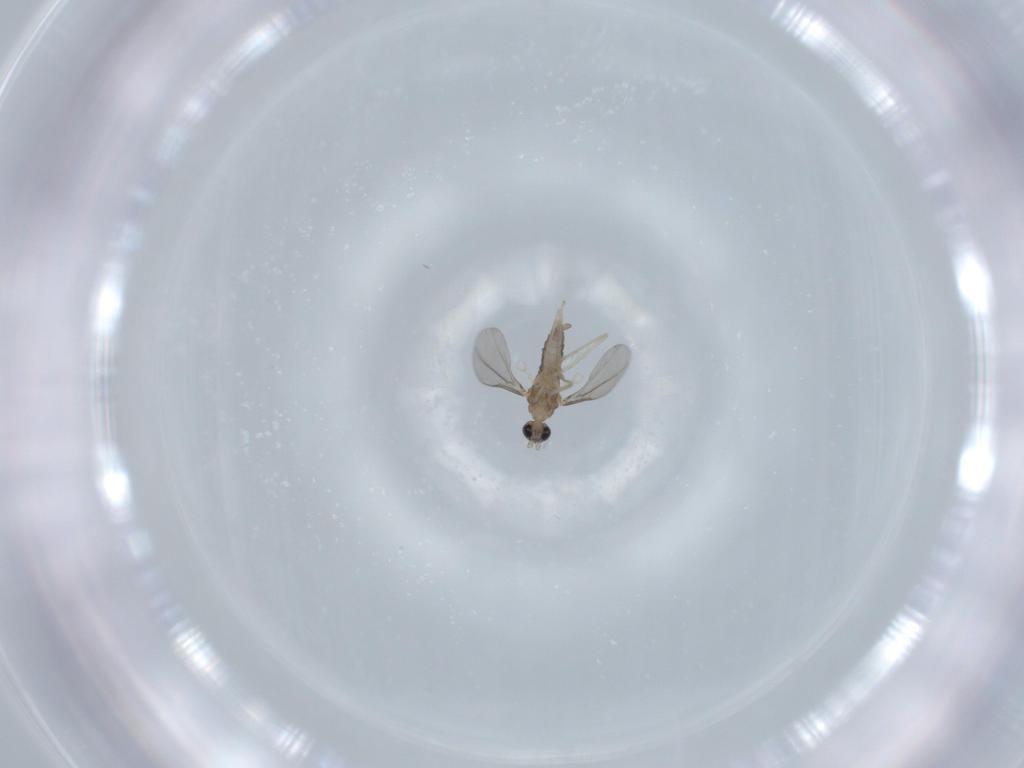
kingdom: Animalia
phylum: Arthropoda
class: Insecta
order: Diptera
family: Cecidomyiidae
